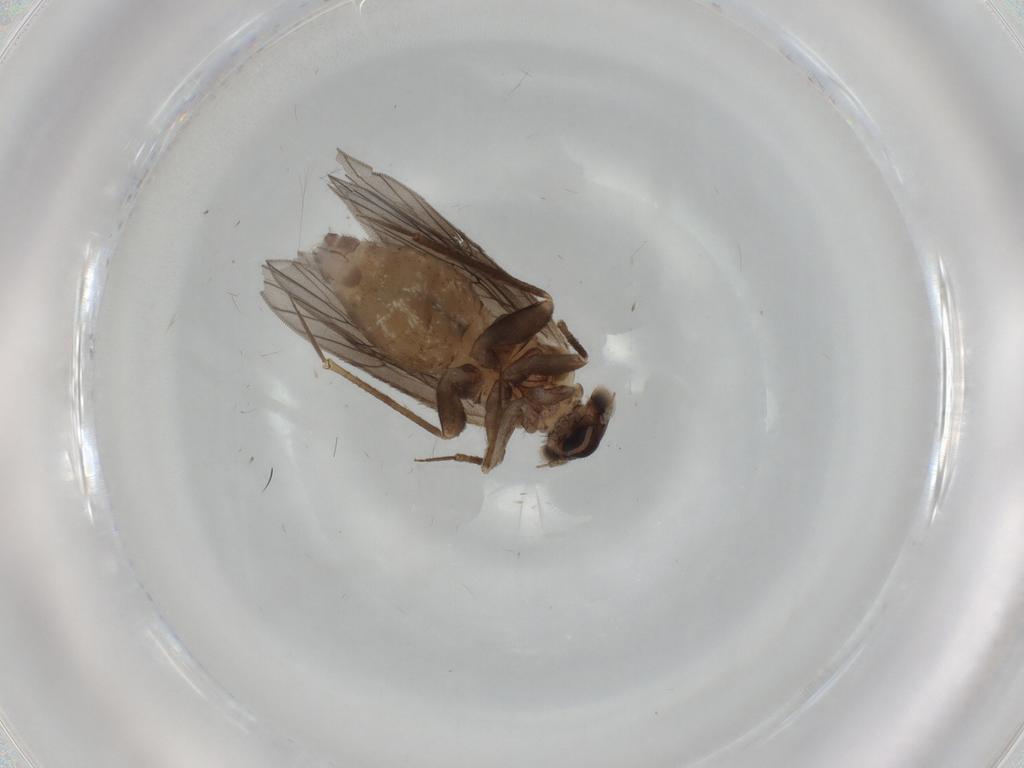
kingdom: Animalia
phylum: Arthropoda
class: Insecta
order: Psocodea
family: Lepidopsocidae
